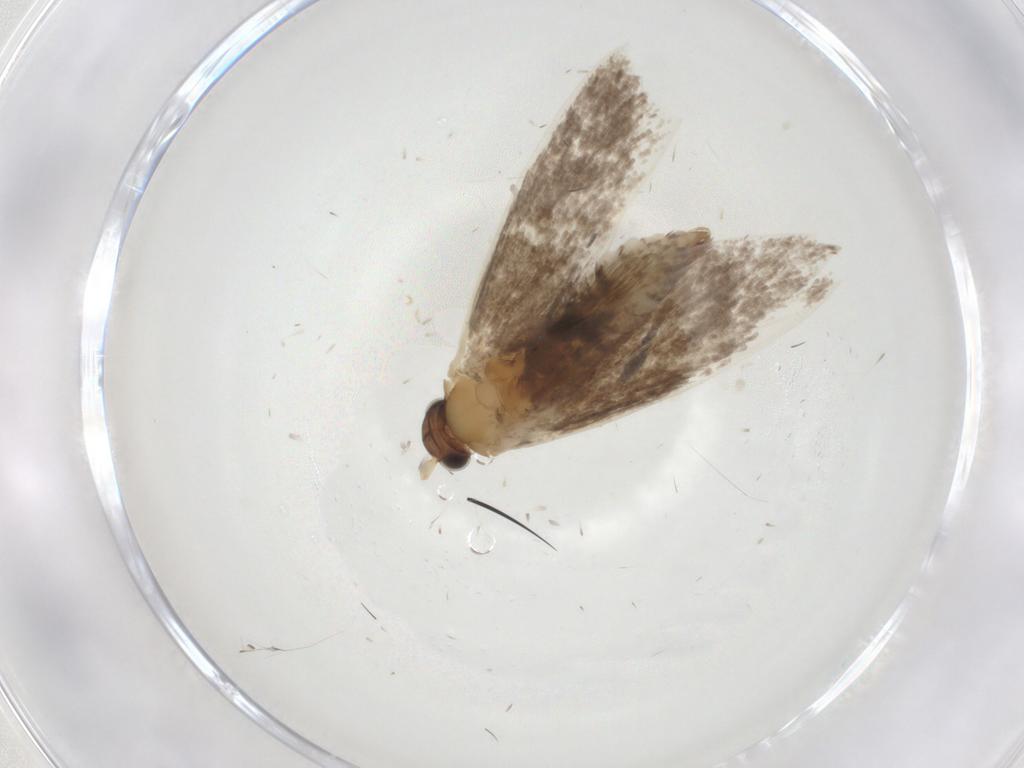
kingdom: Animalia
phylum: Arthropoda
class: Insecta
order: Lepidoptera
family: Tineidae
